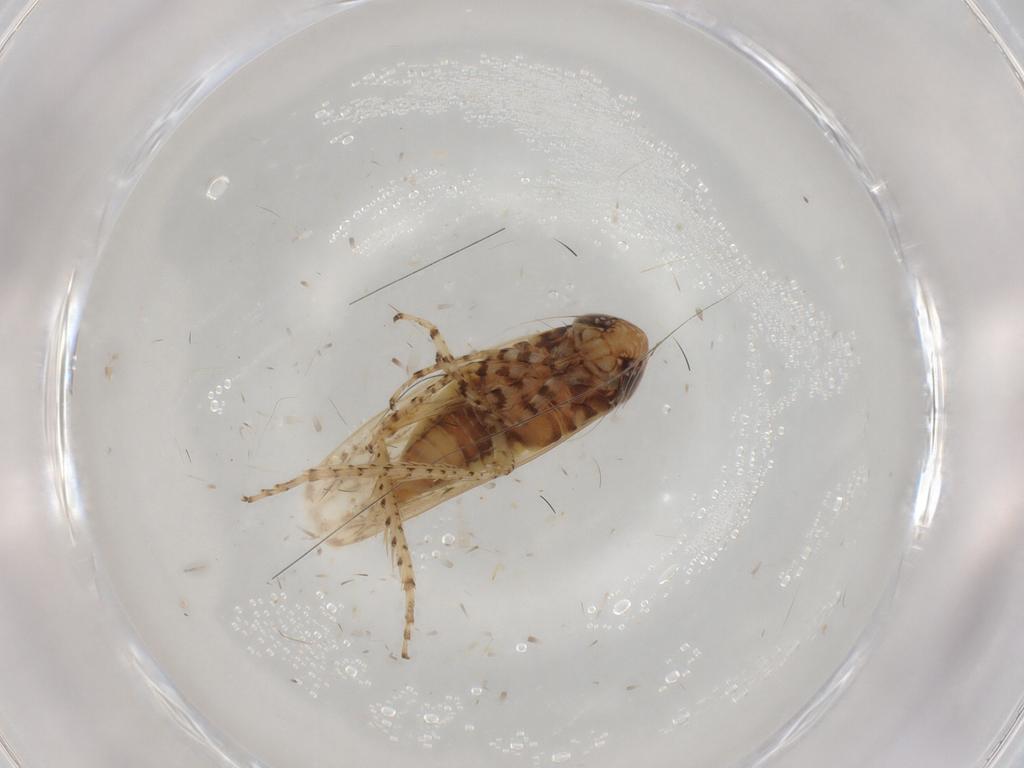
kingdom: Animalia
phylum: Arthropoda
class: Insecta
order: Hemiptera
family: Cicadellidae
